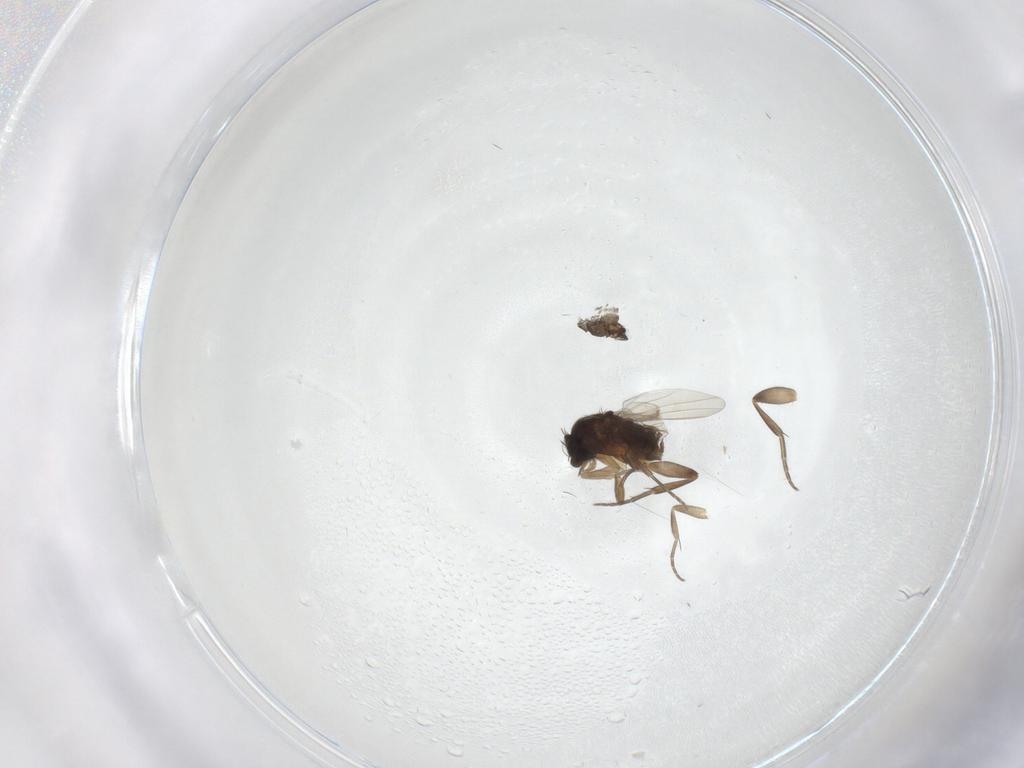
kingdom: Animalia
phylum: Arthropoda
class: Insecta
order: Diptera
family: Phoridae
